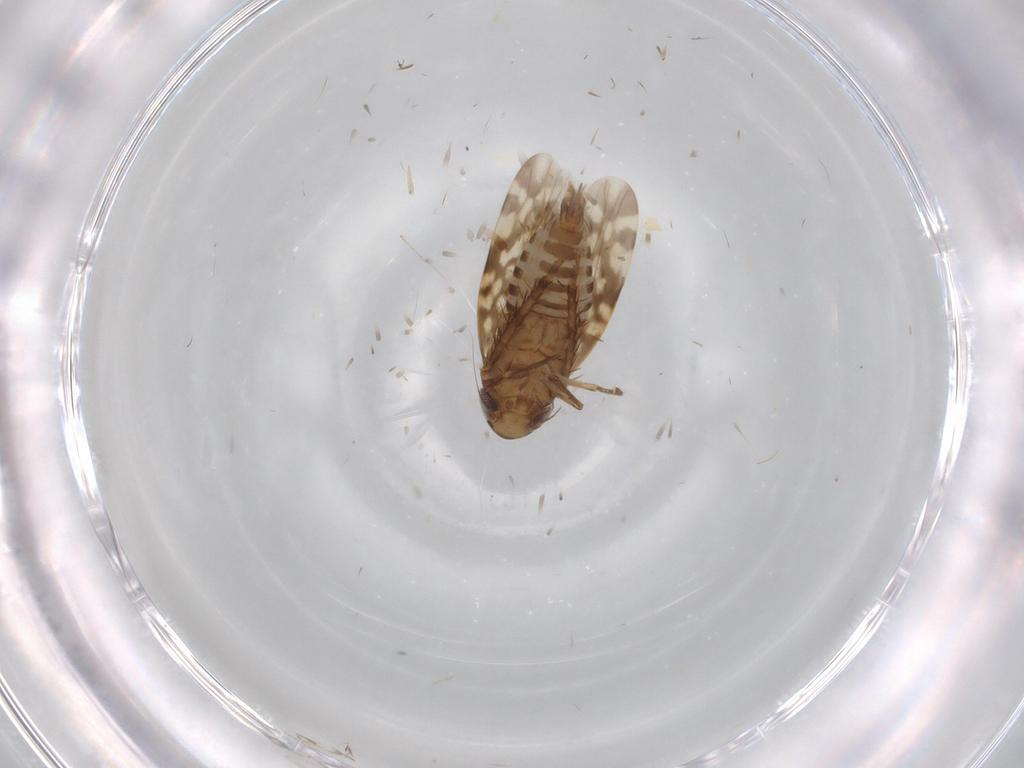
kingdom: Animalia
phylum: Arthropoda
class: Insecta
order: Hemiptera
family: Cicadellidae
